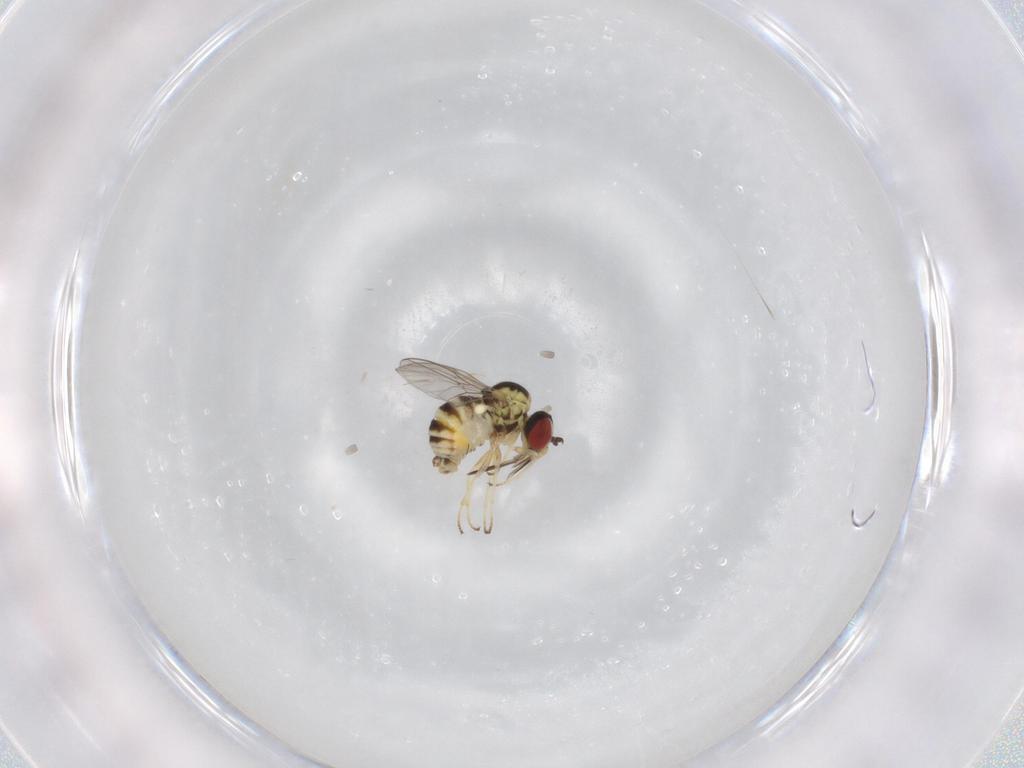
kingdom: Animalia
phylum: Arthropoda
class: Insecta
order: Diptera
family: Bombyliidae
